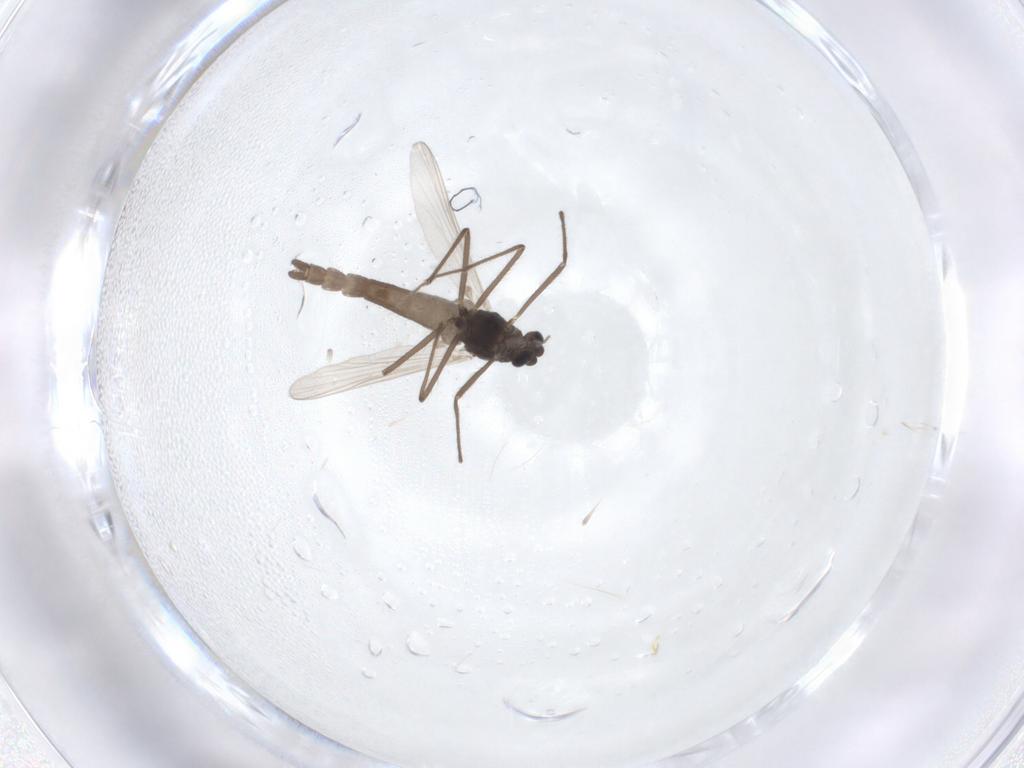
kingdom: Animalia
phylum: Arthropoda
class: Insecta
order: Diptera
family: Chironomidae
